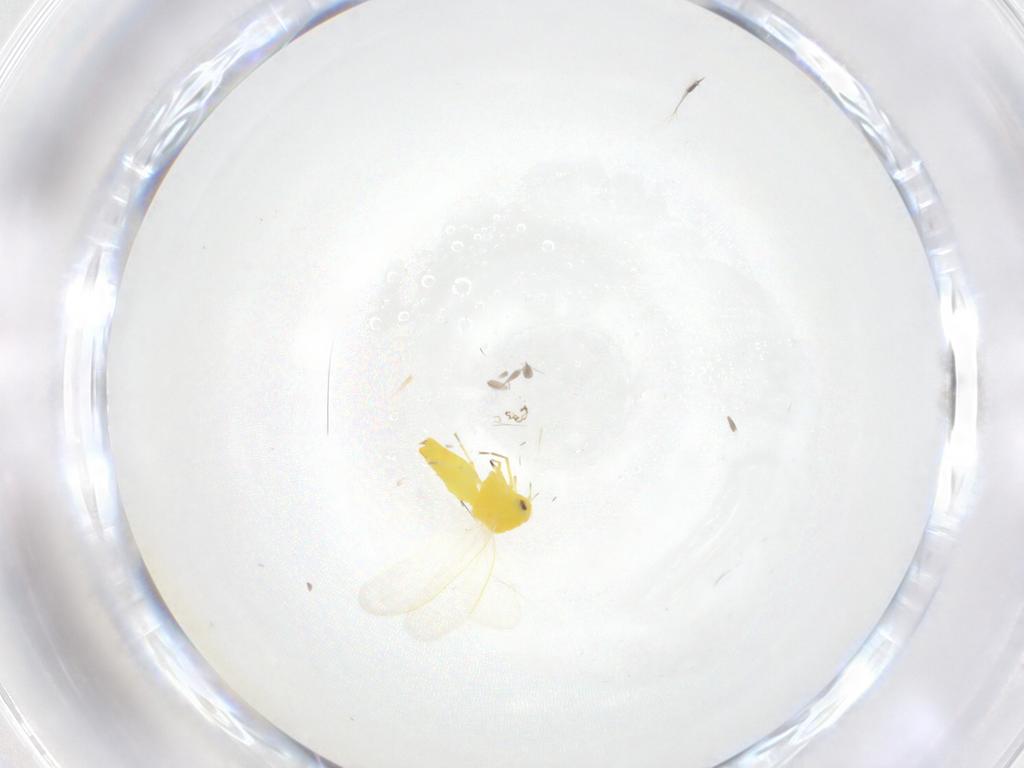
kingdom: Animalia
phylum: Arthropoda
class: Insecta
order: Hemiptera
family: Aleyrodidae
